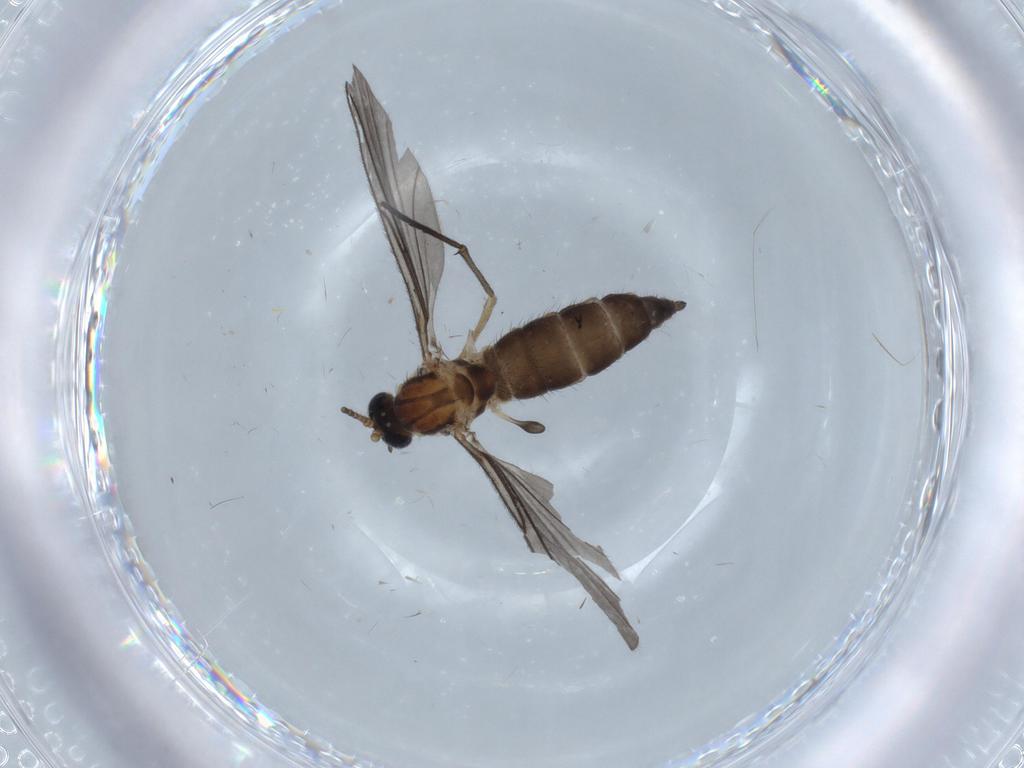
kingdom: Animalia
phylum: Arthropoda
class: Insecta
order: Diptera
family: Sciaridae
